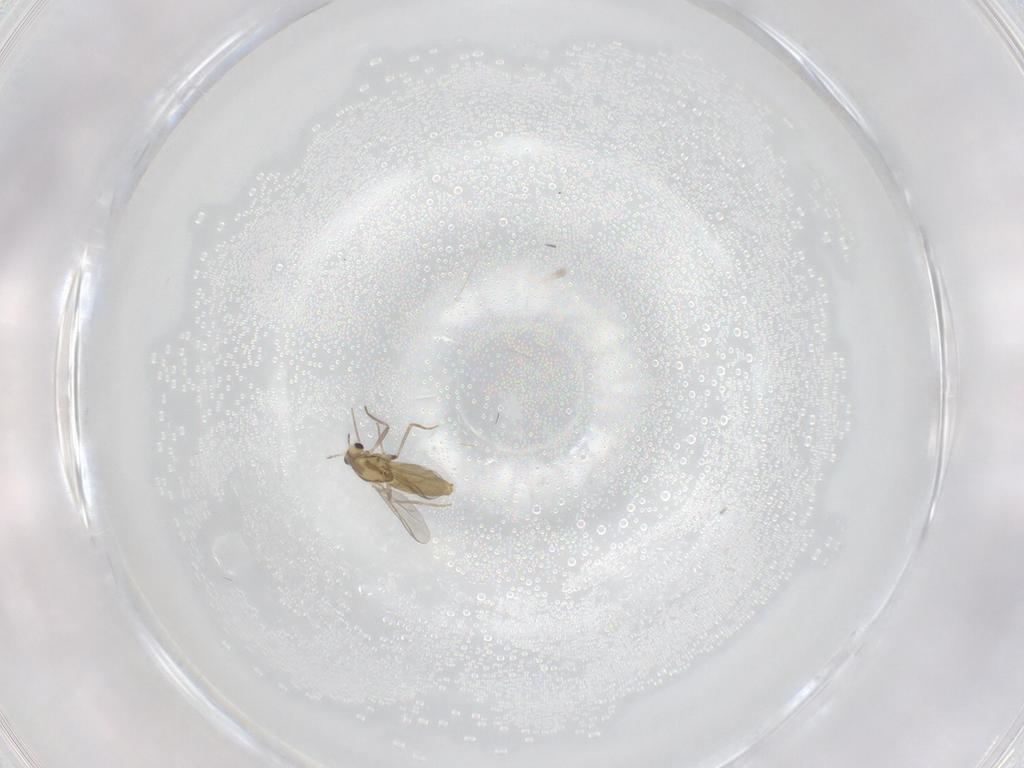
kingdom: Animalia
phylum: Arthropoda
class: Insecta
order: Diptera
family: Chironomidae
